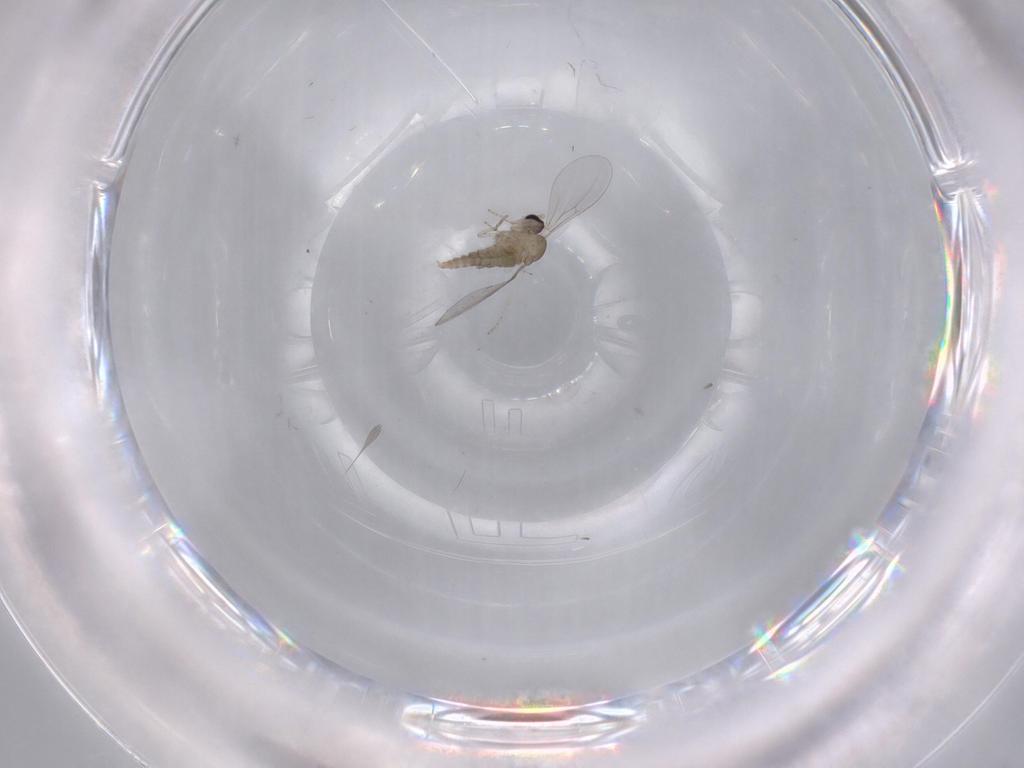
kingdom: Animalia
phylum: Arthropoda
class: Insecta
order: Diptera
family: Cecidomyiidae
